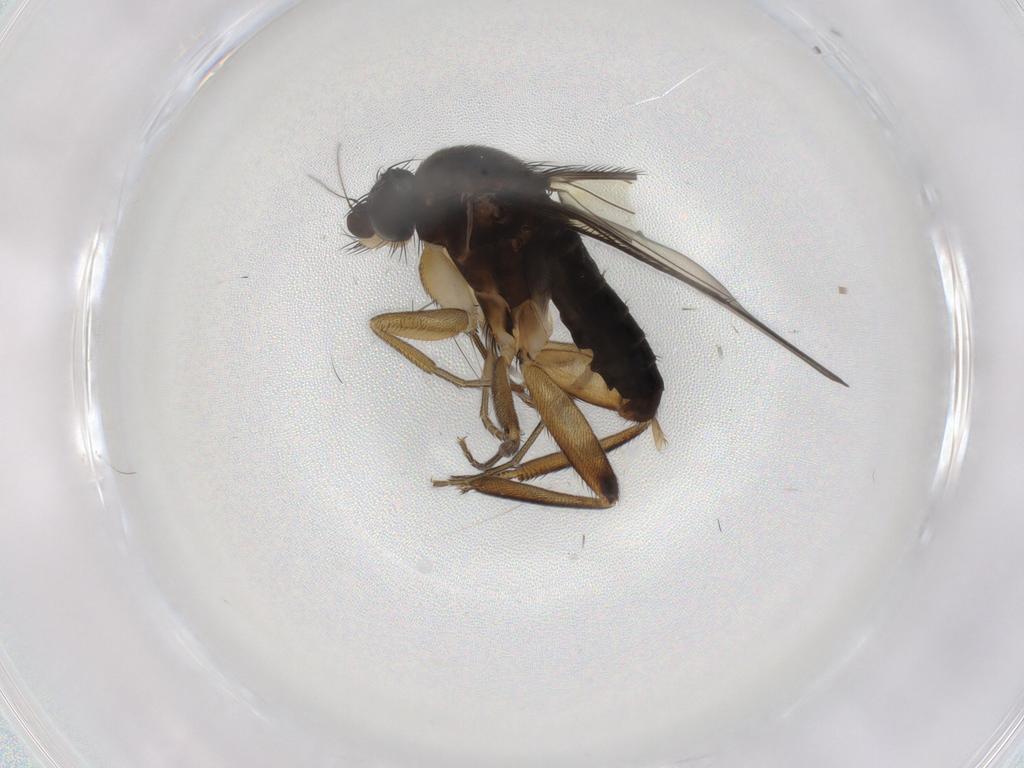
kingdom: Animalia
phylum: Arthropoda
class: Insecta
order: Diptera
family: Phoridae
